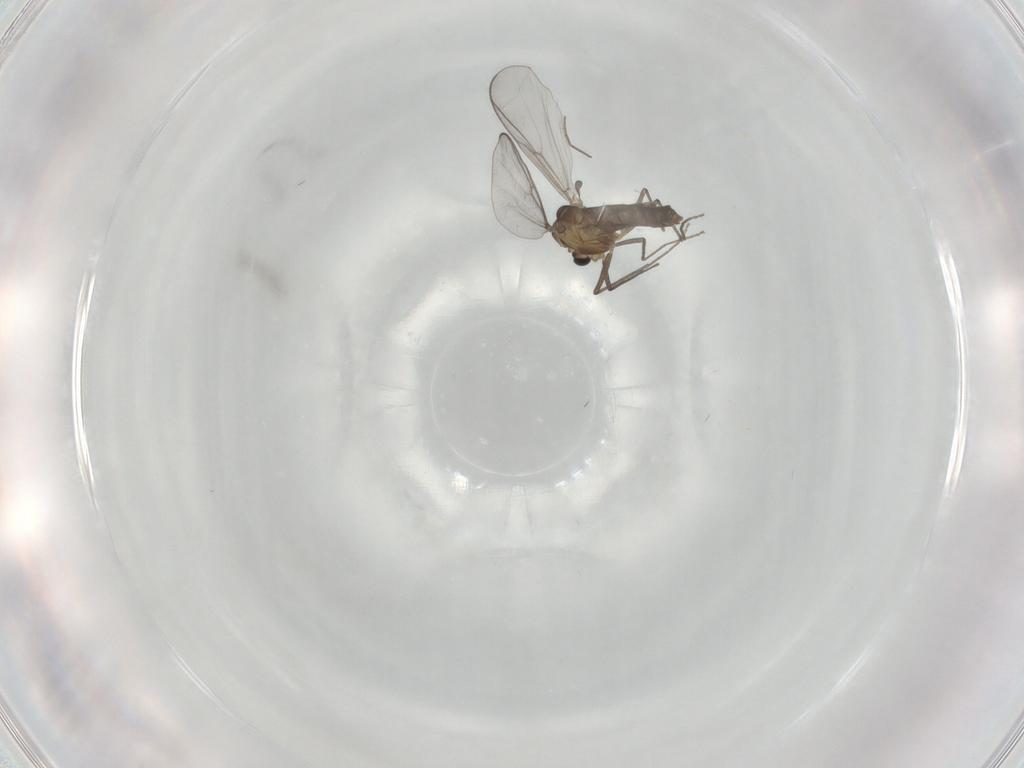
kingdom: Animalia
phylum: Arthropoda
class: Insecta
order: Diptera
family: Chironomidae
